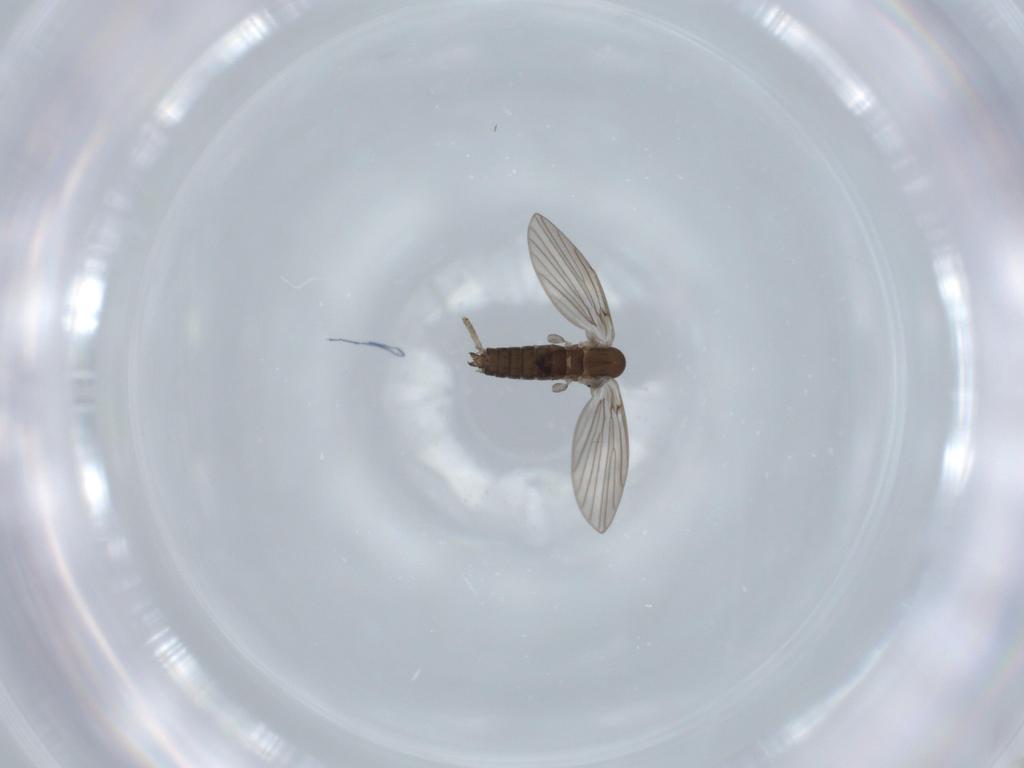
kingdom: Animalia
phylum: Arthropoda
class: Insecta
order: Diptera
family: Psychodidae
